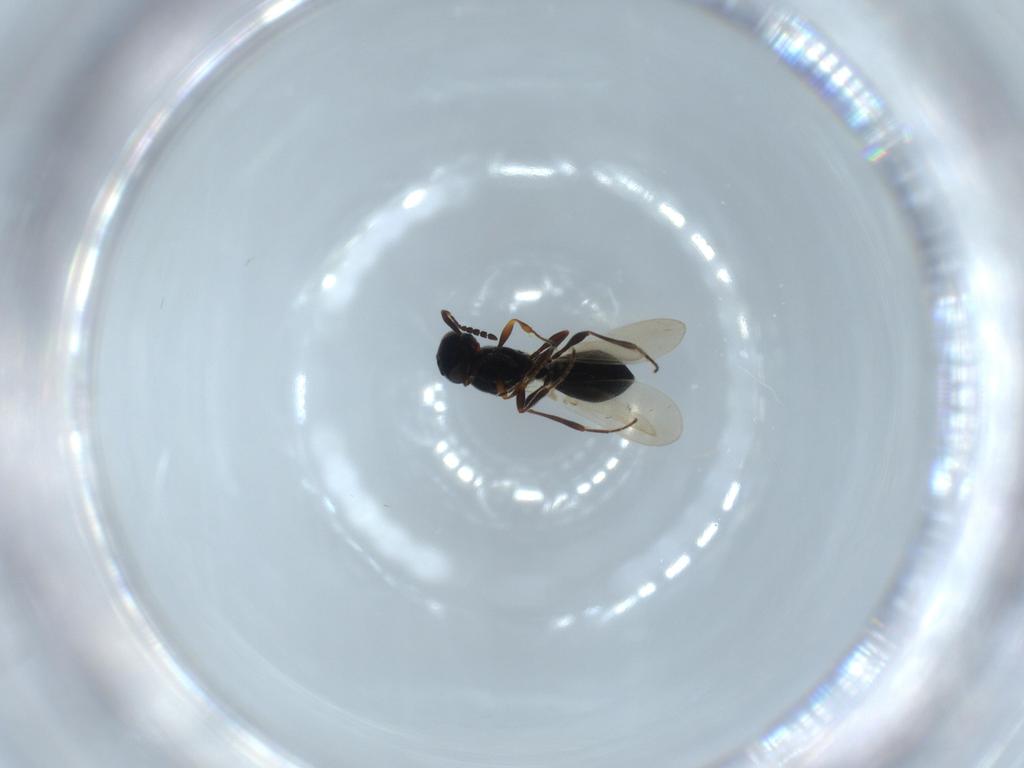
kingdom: Animalia
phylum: Arthropoda
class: Insecta
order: Hymenoptera
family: Platygastridae
